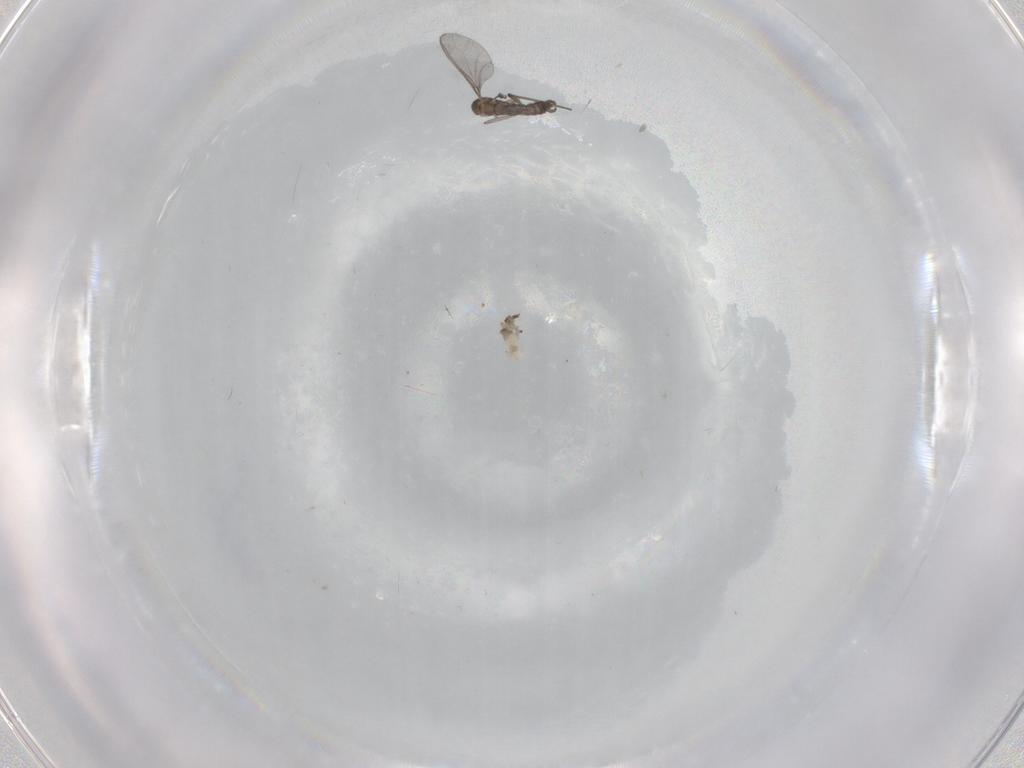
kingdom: Animalia
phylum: Arthropoda
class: Insecta
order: Diptera
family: Phoridae
